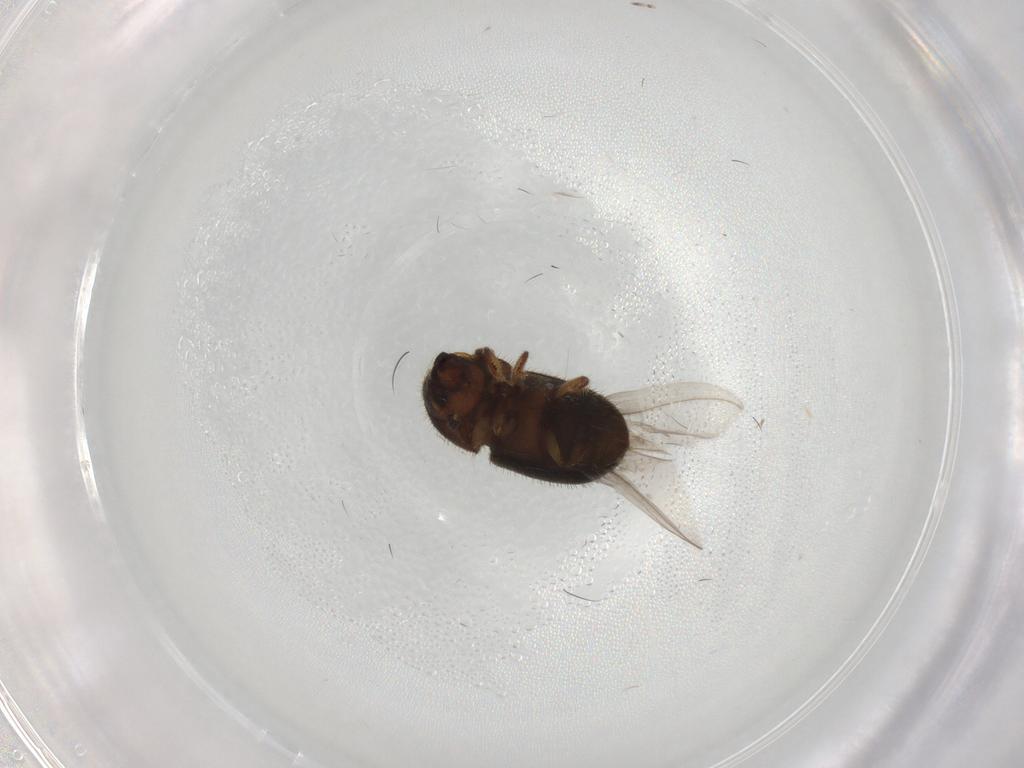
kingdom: Animalia
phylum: Arthropoda
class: Insecta
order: Coleoptera
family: Curculionidae
